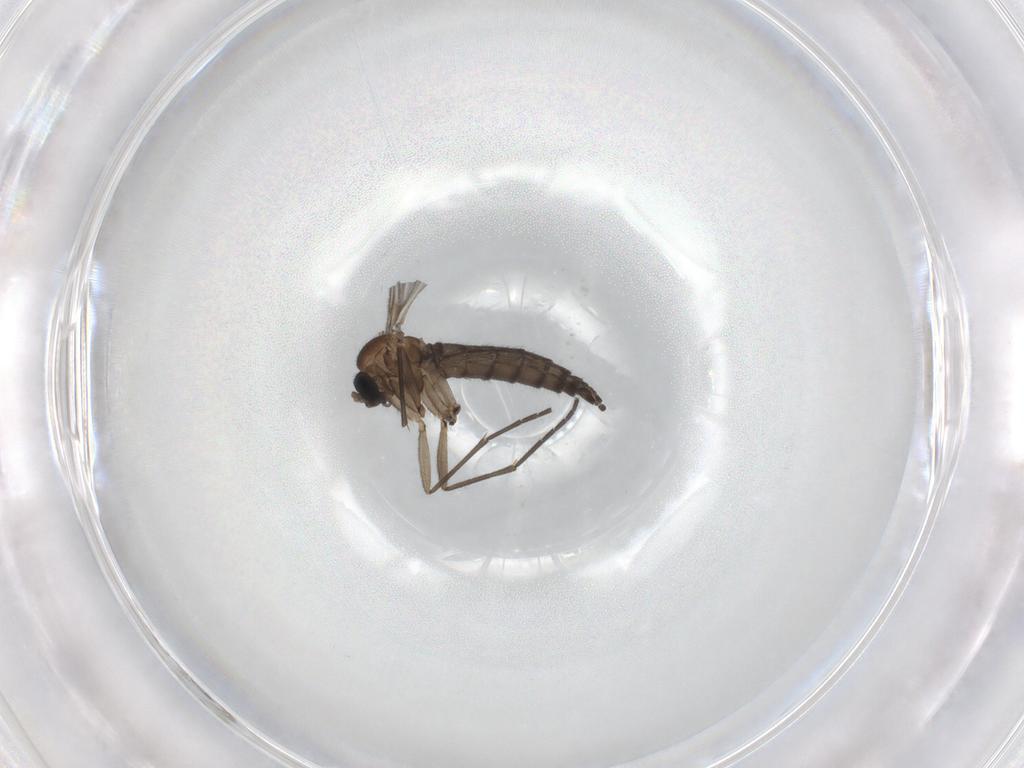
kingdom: Animalia
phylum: Arthropoda
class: Insecta
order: Diptera
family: Sciaridae
